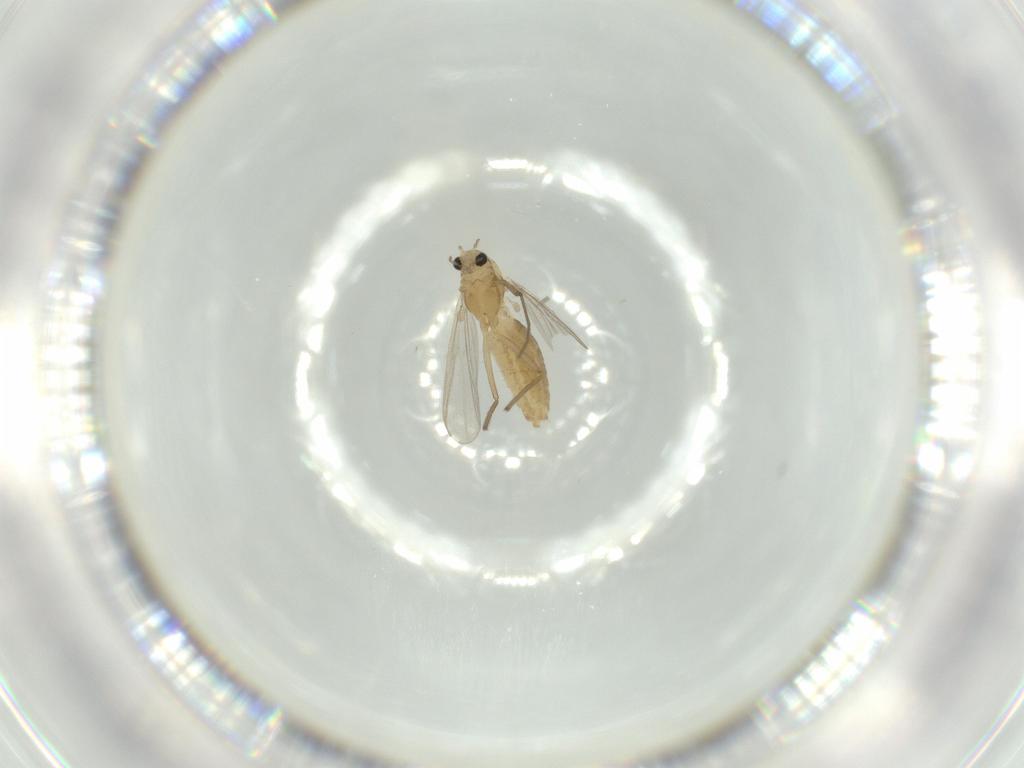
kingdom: Animalia
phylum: Arthropoda
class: Insecta
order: Diptera
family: Chironomidae
